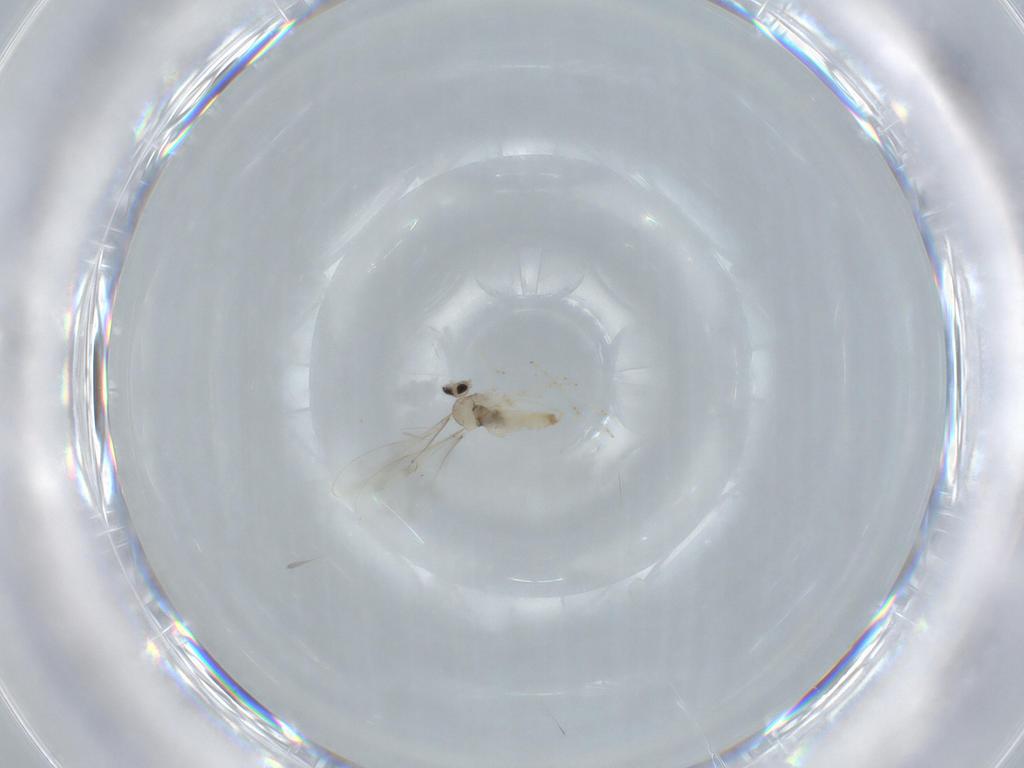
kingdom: Animalia
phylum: Arthropoda
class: Insecta
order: Diptera
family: Cecidomyiidae
